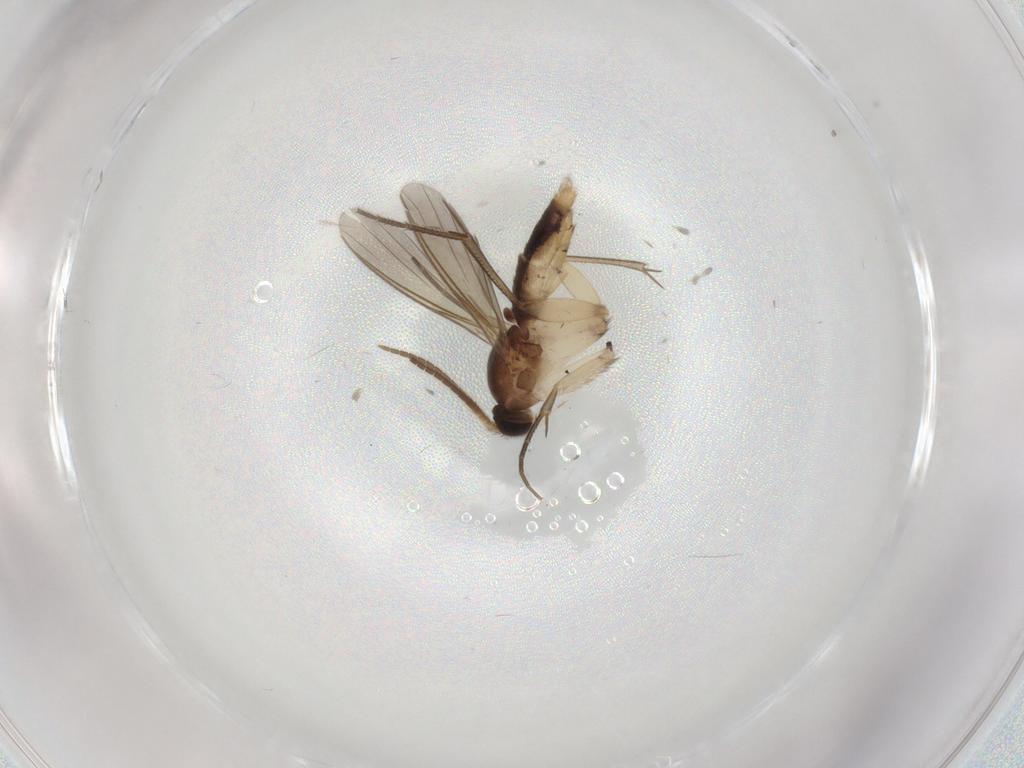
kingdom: Animalia
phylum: Arthropoda
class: Insecta
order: Diptera
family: Mycetophilidae
